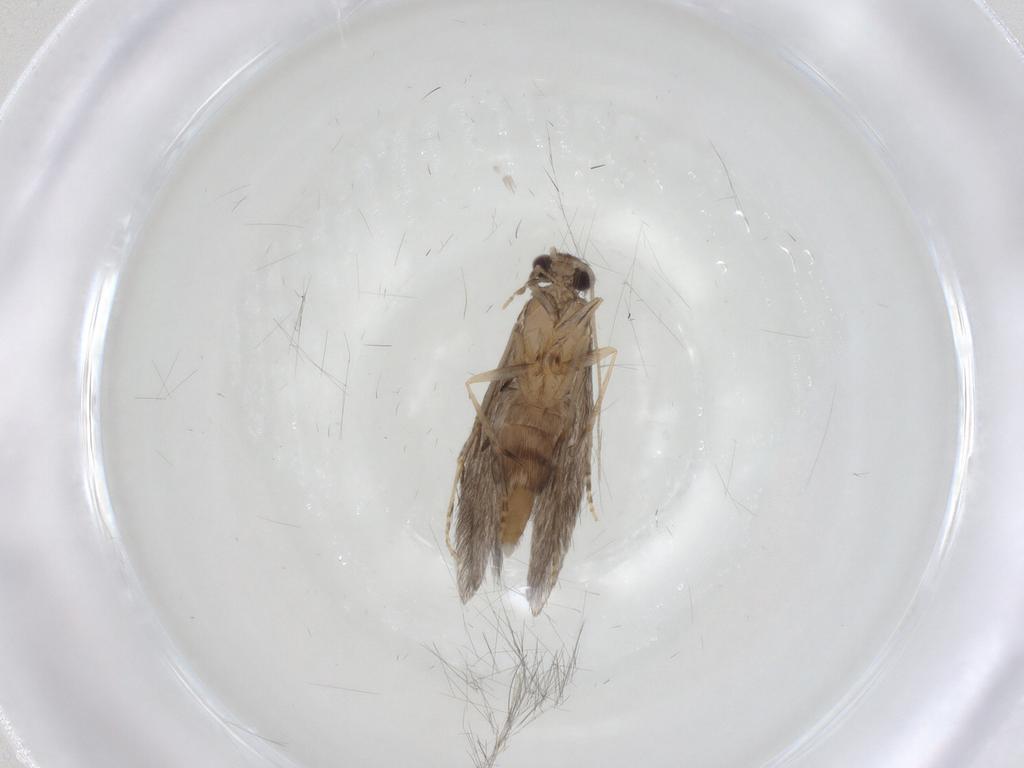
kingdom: Animalia
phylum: Arthropoda
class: Insecta
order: Trichoptera
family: Hydroptilidae
